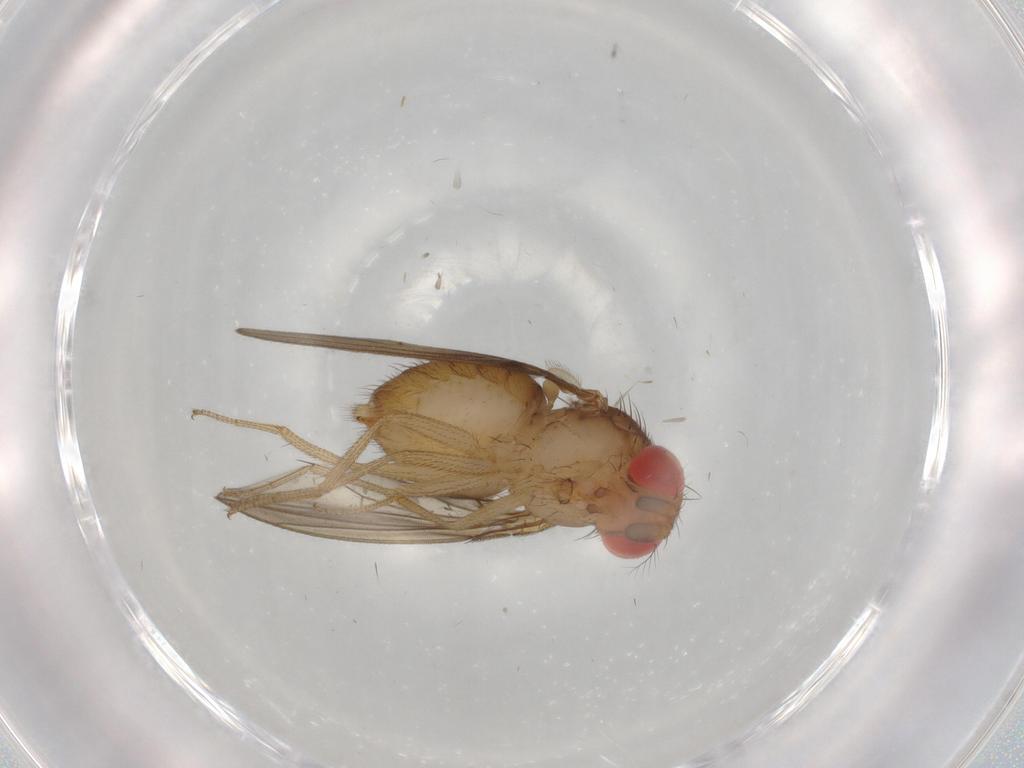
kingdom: Animalia
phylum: Arthropoda
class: Insecta
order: Diptera
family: Drosophilidae
